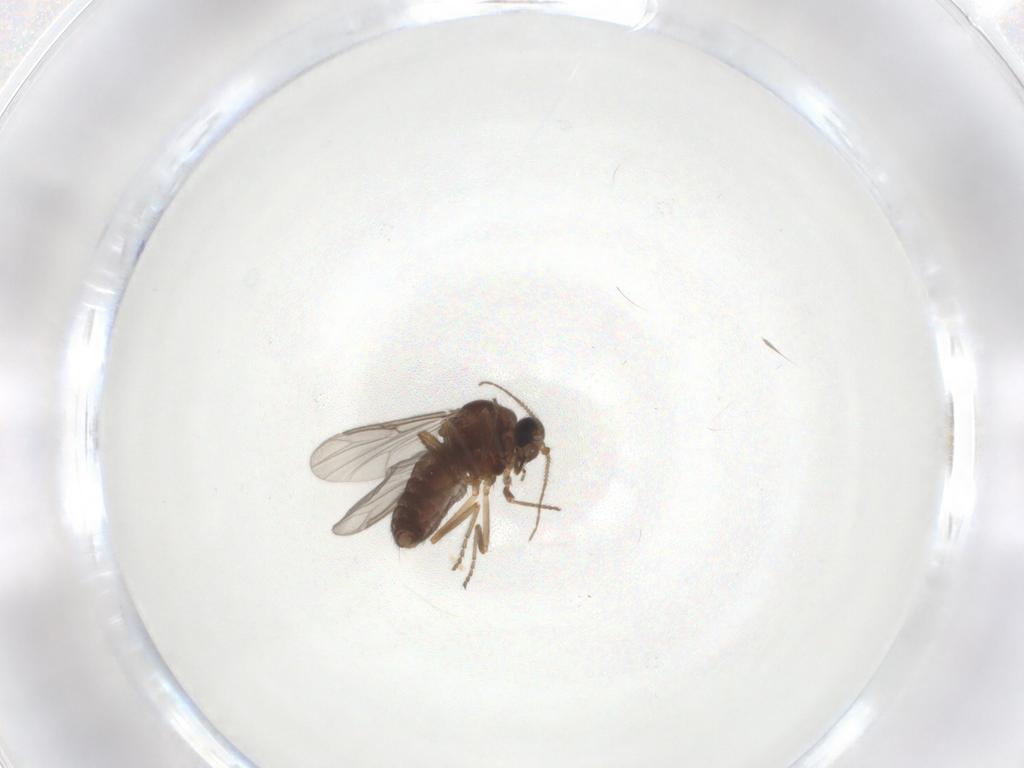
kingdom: Animalia
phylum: Arthropoda
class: Insecta
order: Diptera
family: Ceratopogonidae
